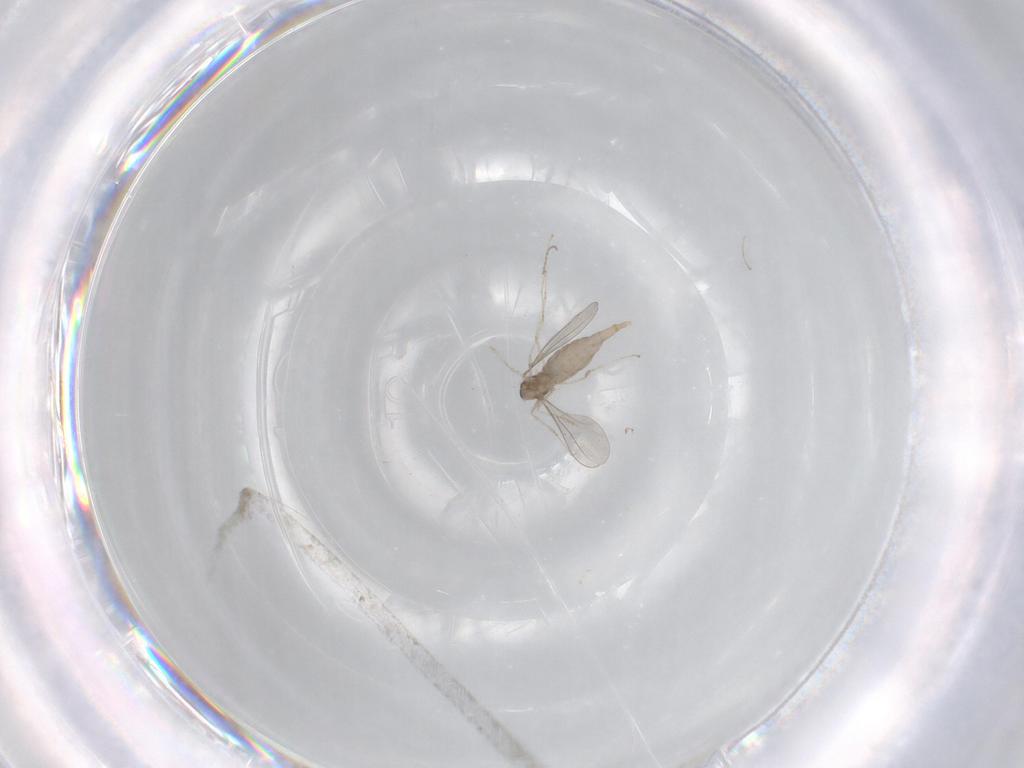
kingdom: Animalia
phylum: Arthropoda
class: Insecta
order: Diptera
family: Cecidomyiidae
